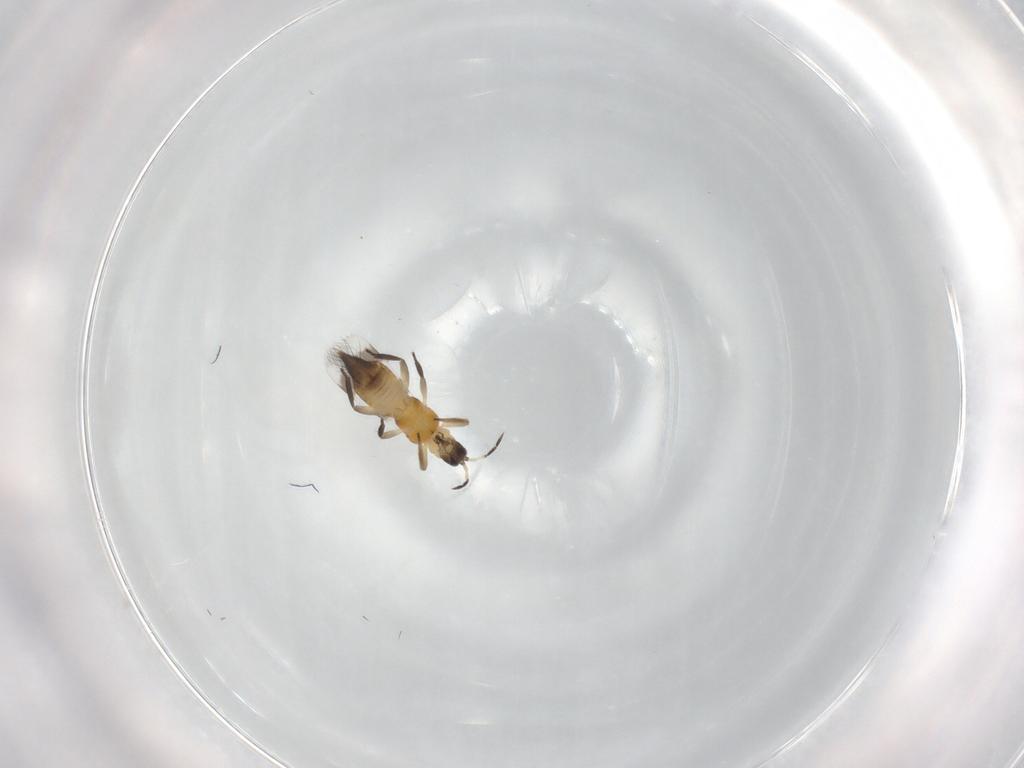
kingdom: Animalia
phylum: Arthropoda
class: Insecta
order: Thysanoptera
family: Aeolothripidae
